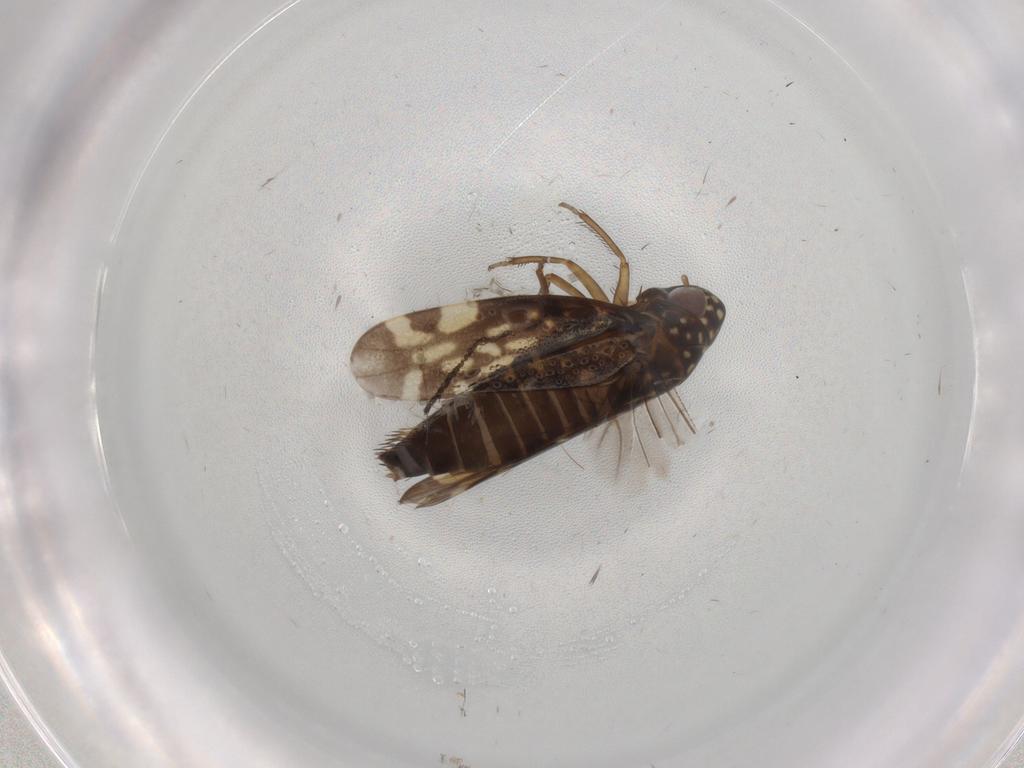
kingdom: Animalia
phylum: Arthropoda
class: Insecta
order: Hemiptera
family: Cicadellidae
